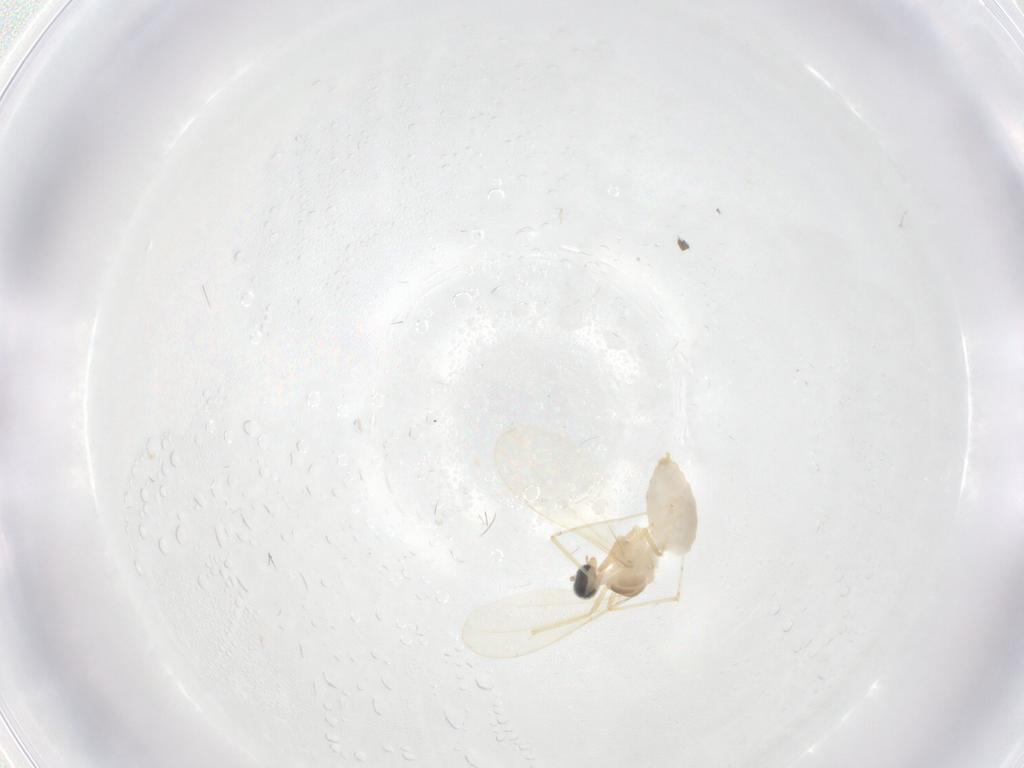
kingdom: Animalia
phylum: Arthropoda
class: Insecta
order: Diptera
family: Cecidomyiidae
